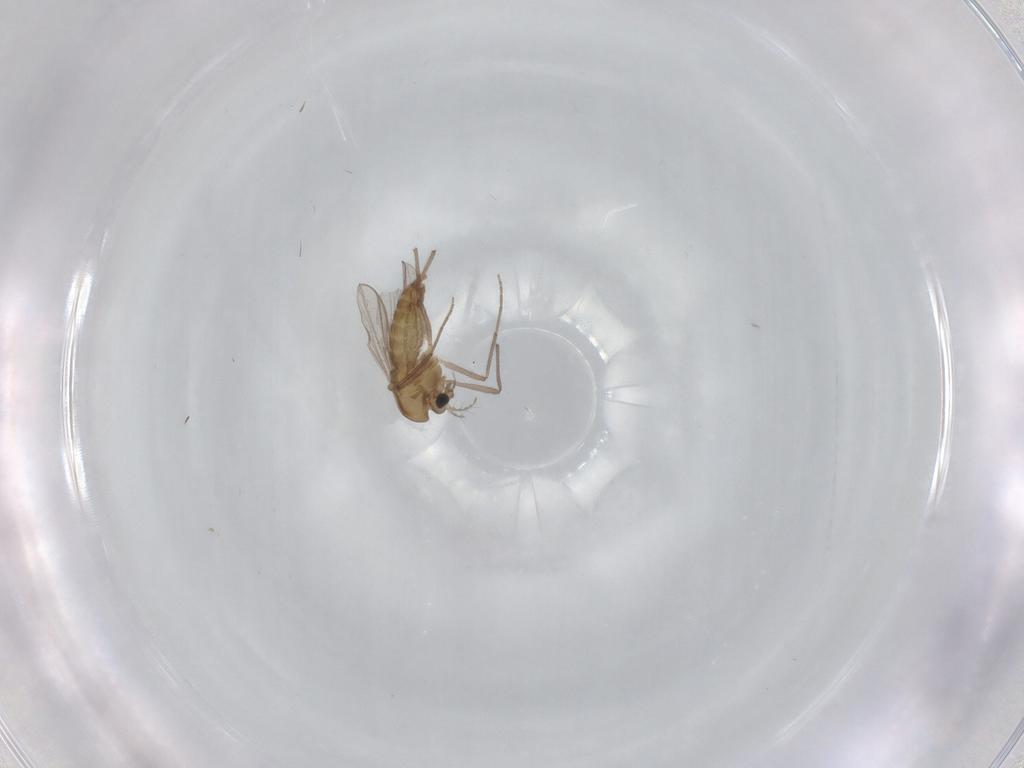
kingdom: Animalia
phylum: Arthropoda
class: Insecta
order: Diptera
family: Chironomidae
